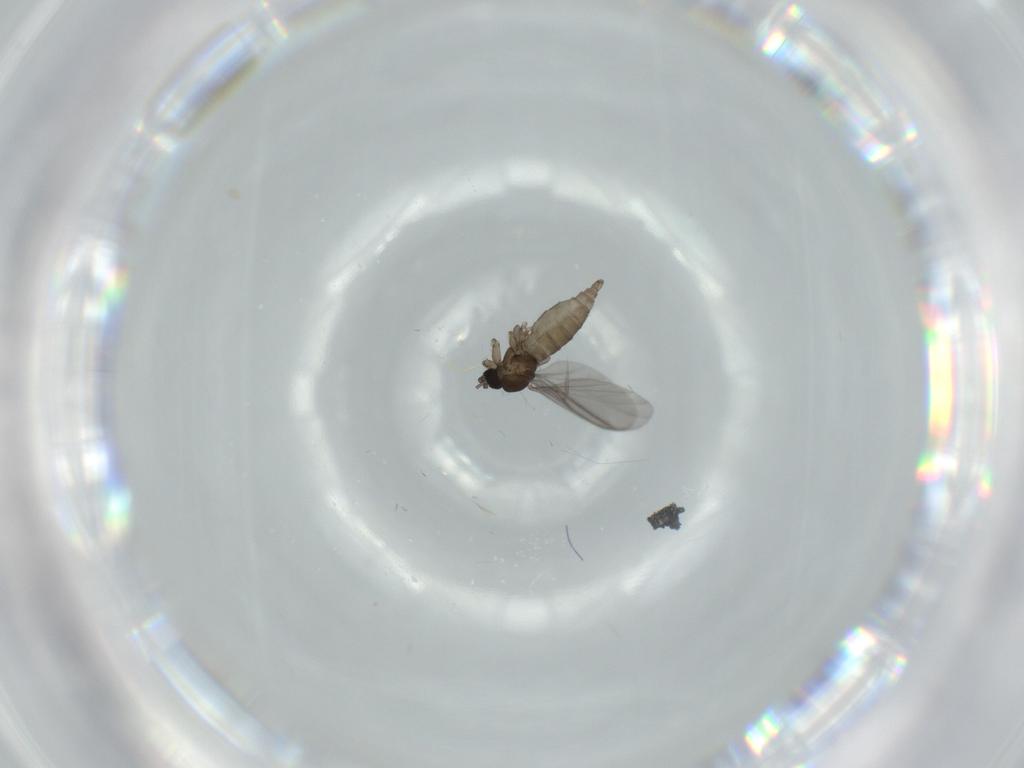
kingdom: Animalia
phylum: Arthropoda
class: Insecta
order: Diptera
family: Sciaridae
